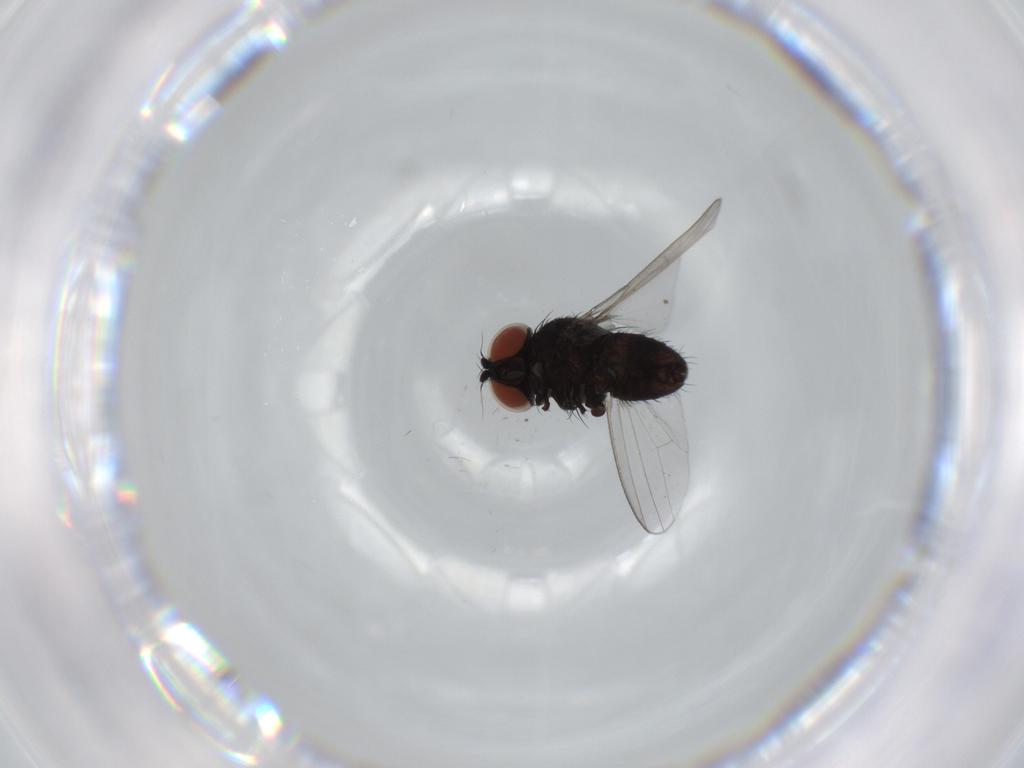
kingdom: Animalia
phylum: Arthropoda
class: Insecta
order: Diptera
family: Milichiidae
